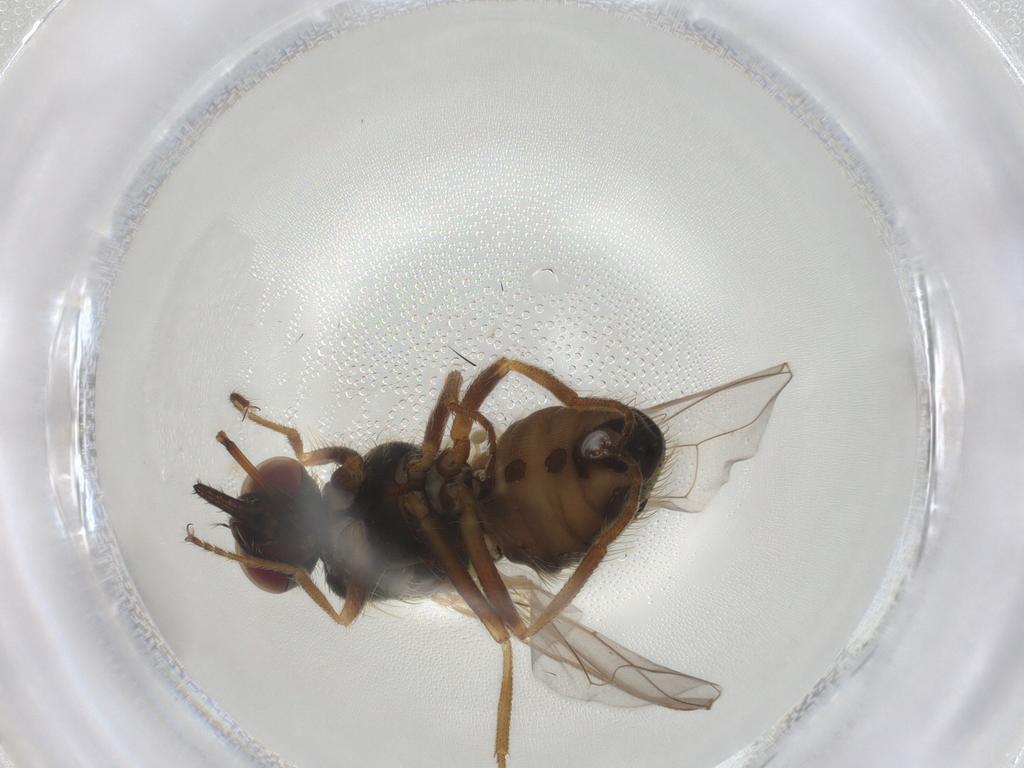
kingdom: Animalia
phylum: Arthropoda
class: Insecta
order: Diptera
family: Muscidae
